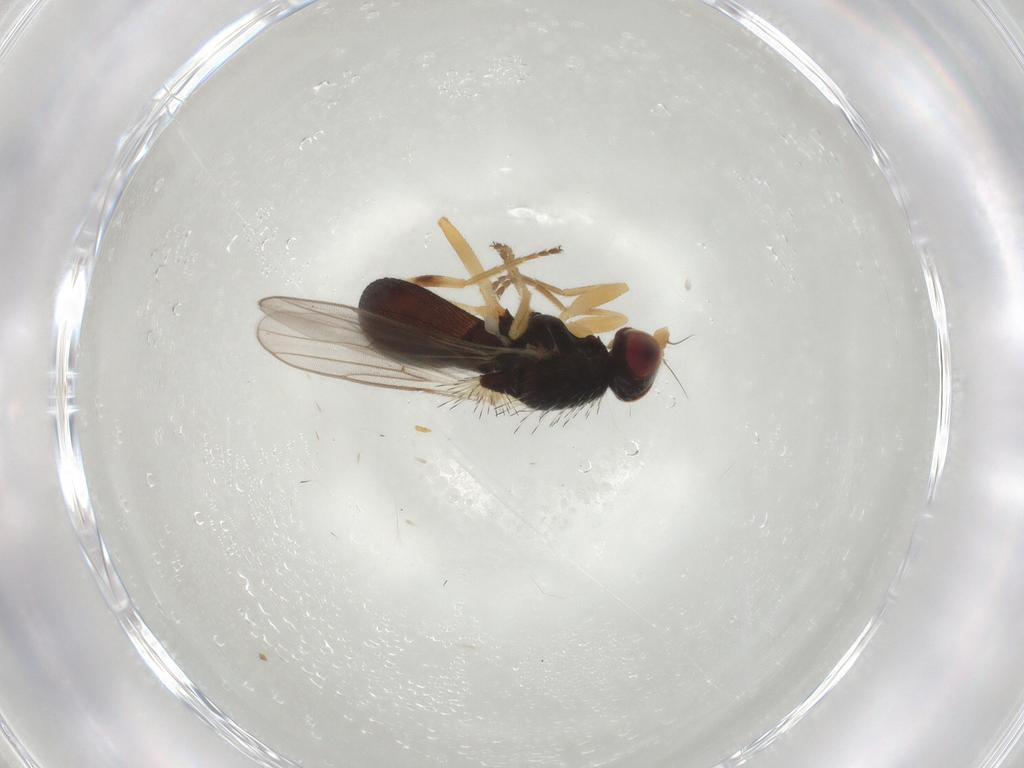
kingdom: Animalia
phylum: Arthropoda
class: Insecta
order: Diptera
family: Chloropidae
